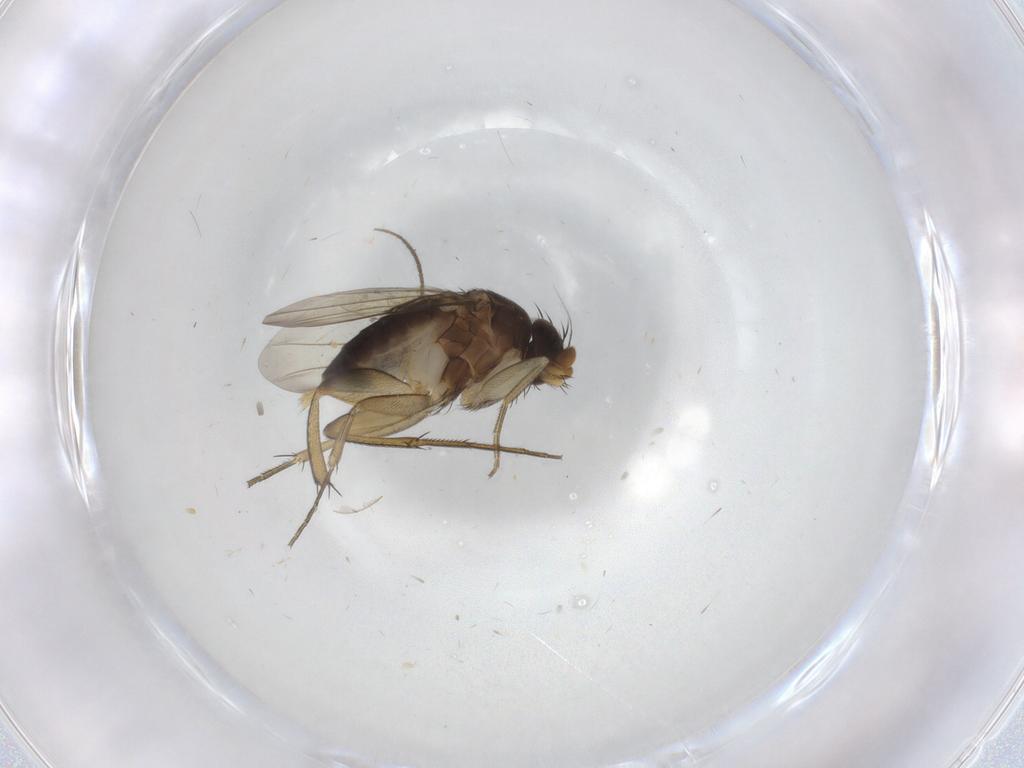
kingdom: Animalia
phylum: Arthropoda
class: Insecta
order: Diptera
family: Phoridae
